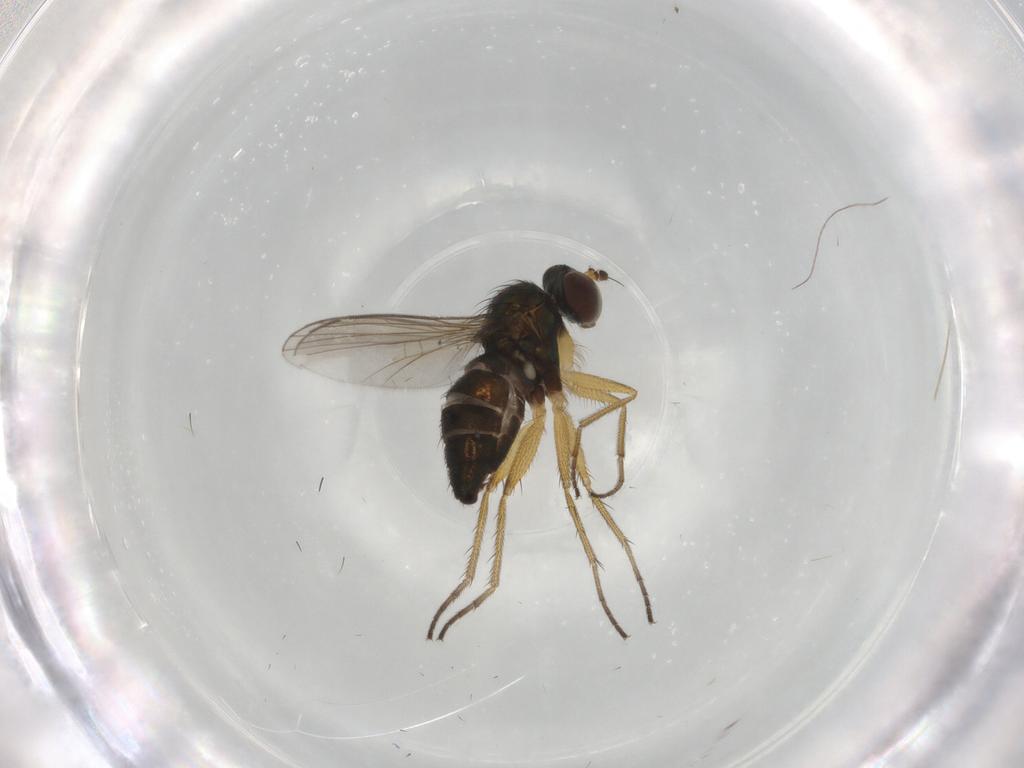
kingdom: Animalia
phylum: Arthropoda
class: Insecta
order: Diptera
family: Dolichopodidae
